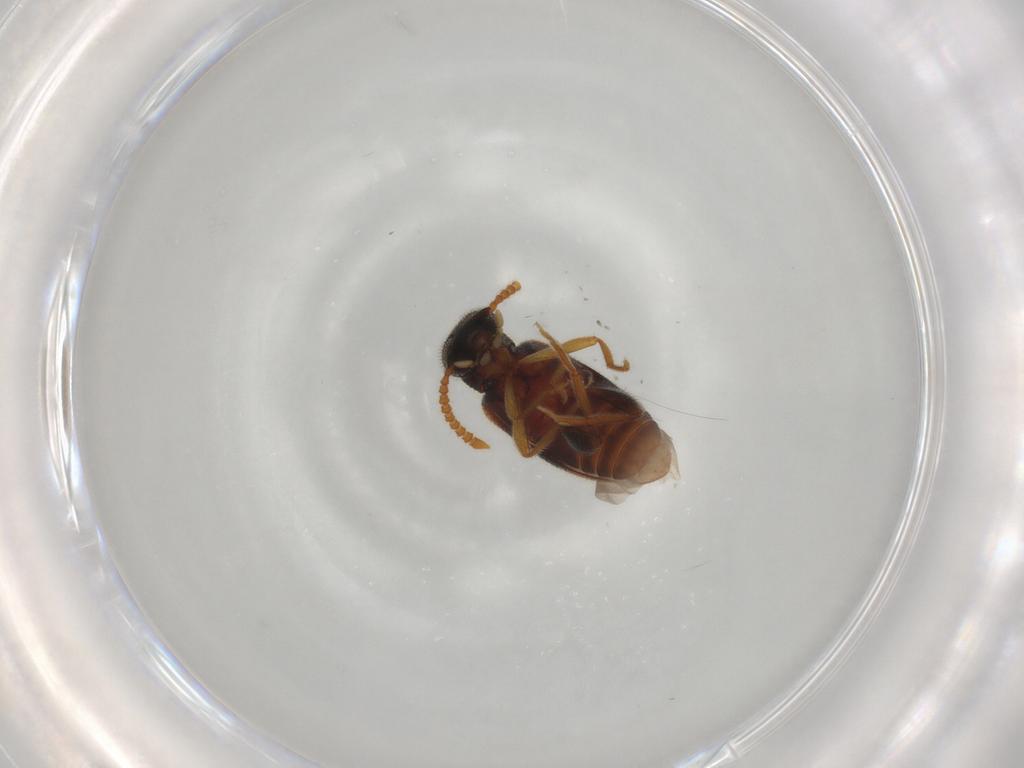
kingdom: Animalia
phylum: Arthropoda
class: Insecta
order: Coleoptera
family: Aderidae
